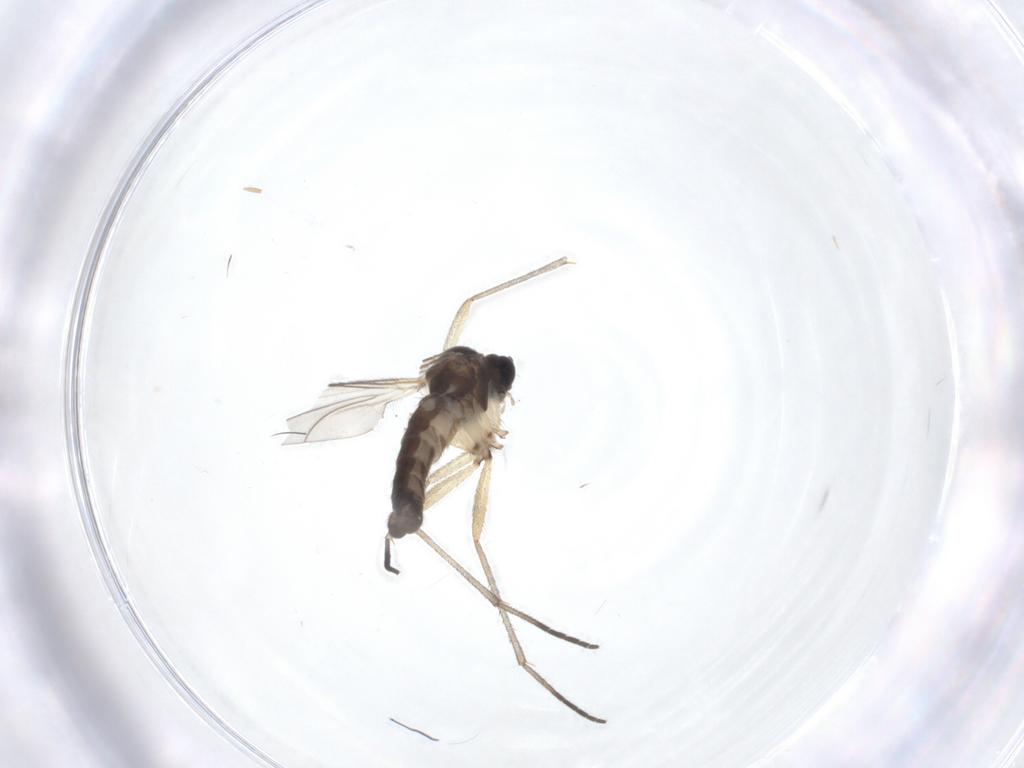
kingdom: Animalia
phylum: Arthropoda
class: Insecta
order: Diptera
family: Sciaridae
